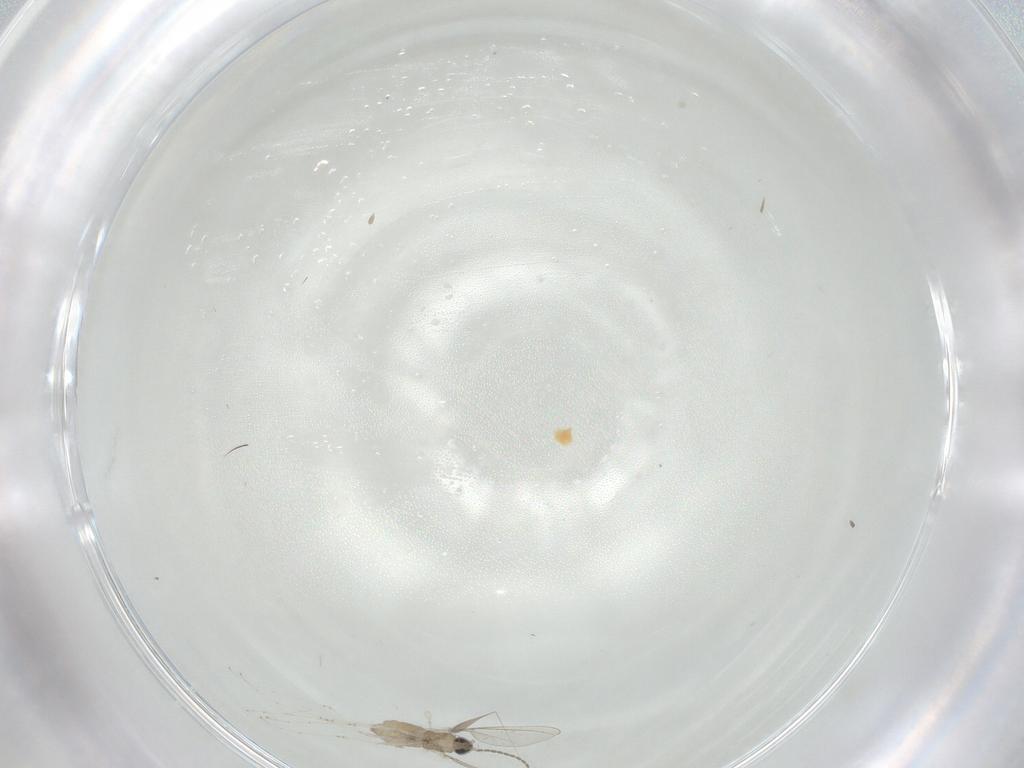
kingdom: Animalia
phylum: Arthropoda
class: Insecta
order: Diptera
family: Cecidomyiidae
